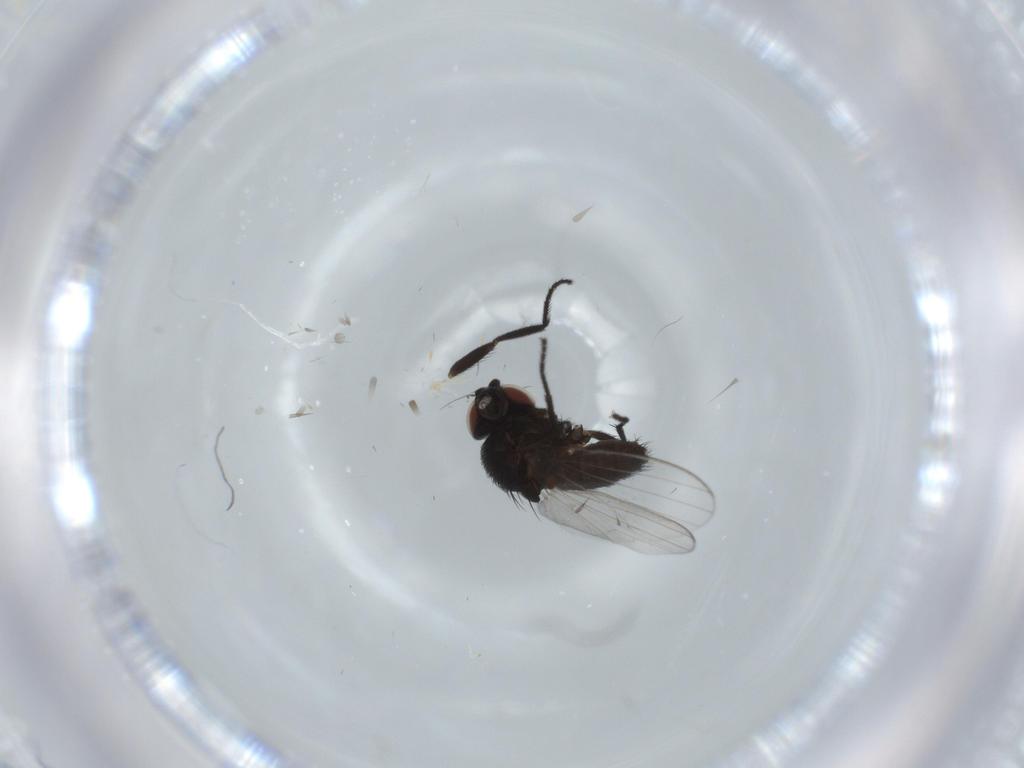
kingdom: Animalia
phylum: Arthropoda
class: Insecta
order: Diptera
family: Milichiidae
